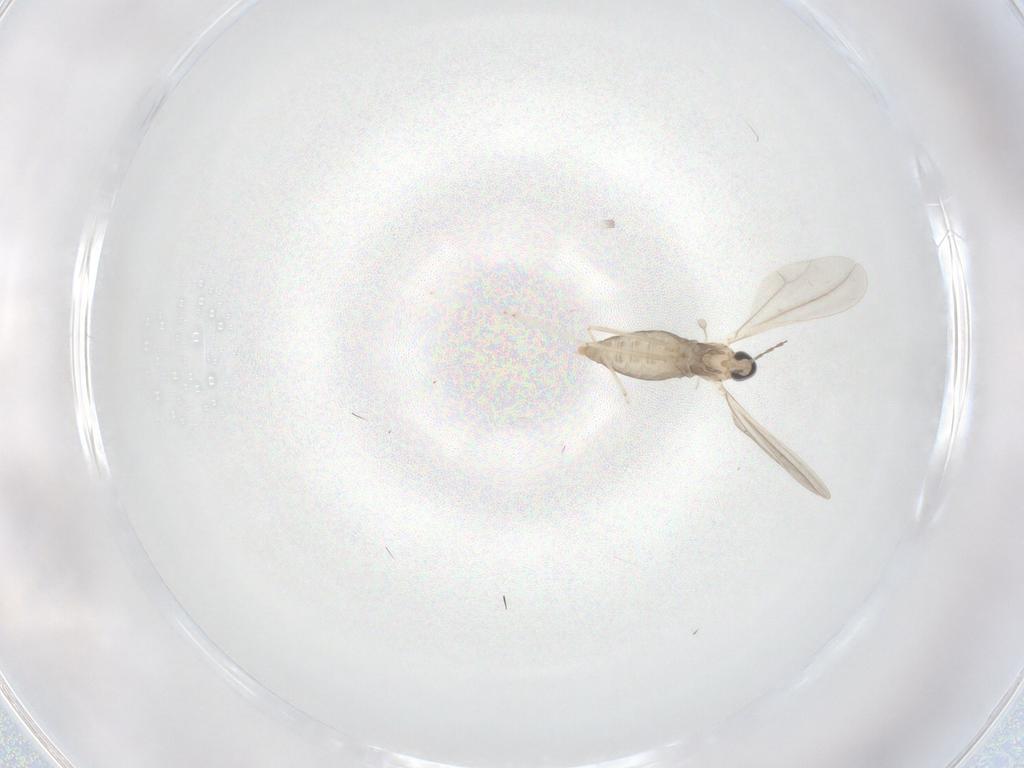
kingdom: Animalia
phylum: Arthropoda
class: Insecta
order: Diptera
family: Cecidomyiidae
